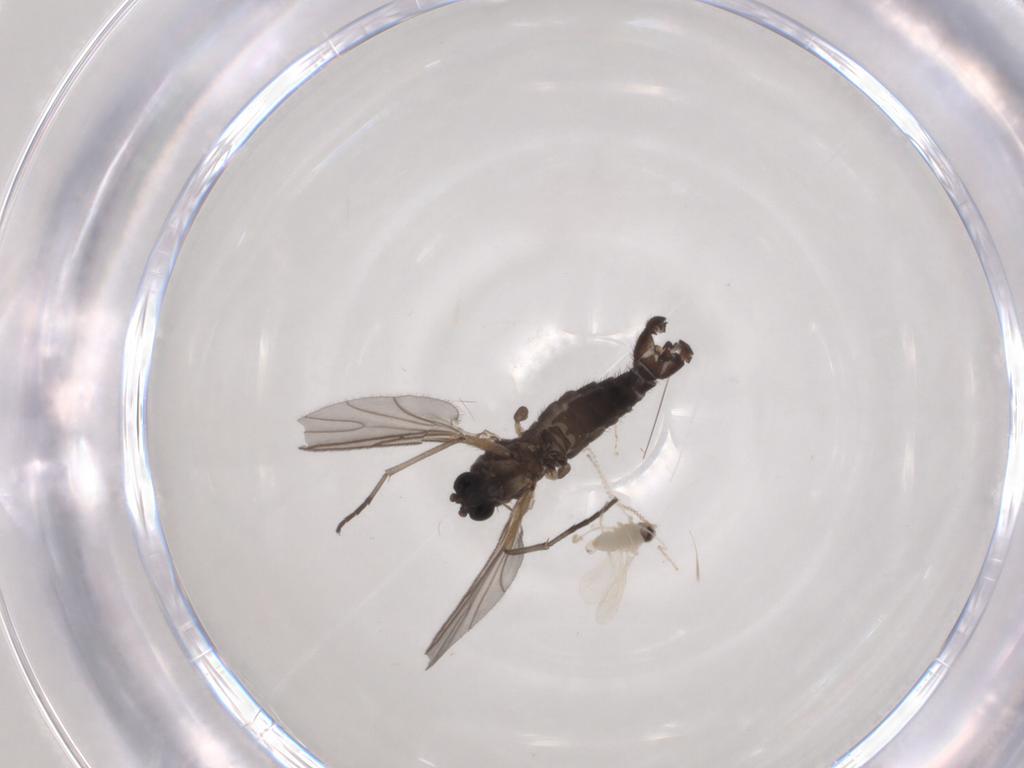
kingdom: Animalia
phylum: Arthropoda
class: Insecta
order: Diptera
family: Sciaridae
